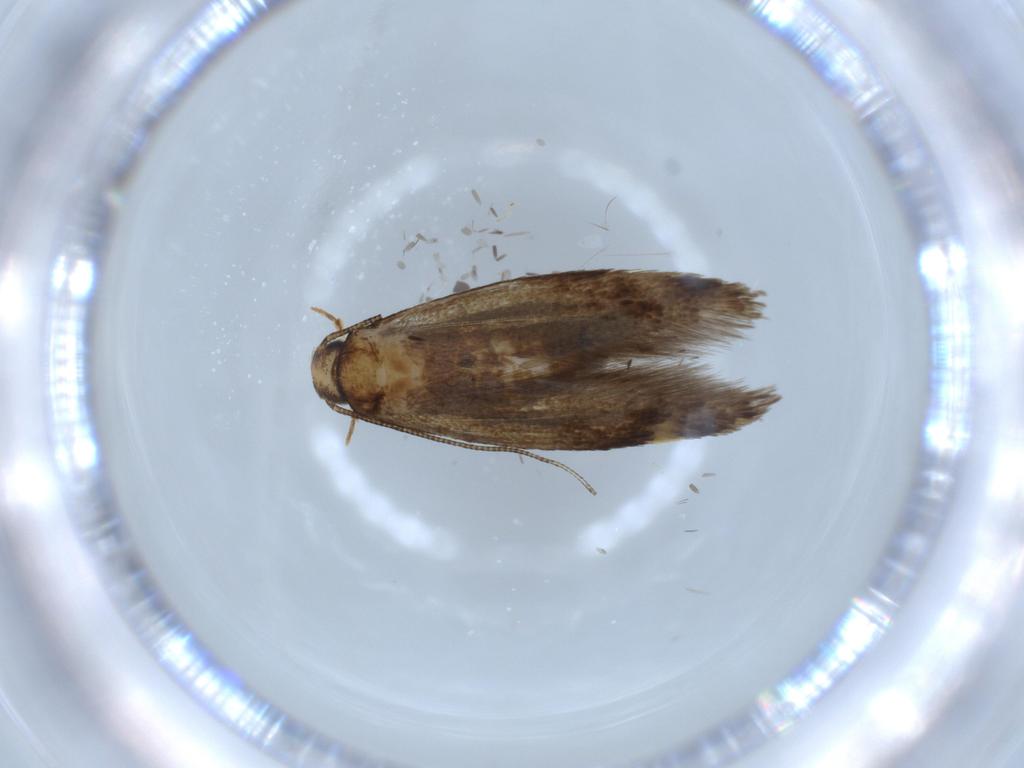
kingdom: Animalia
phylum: Arthropoda
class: Insecta
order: Lepidoptera
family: Tineidae
